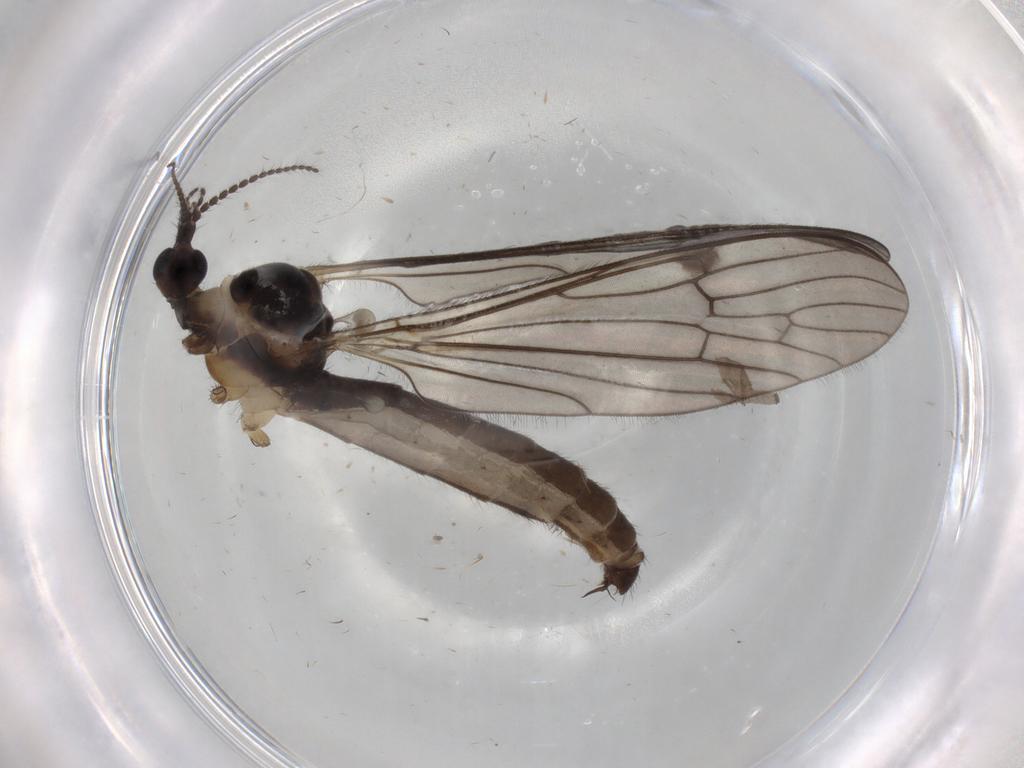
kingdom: Animalia
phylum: Arthropoda
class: Insecta
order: Diptera
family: Limoniidae
